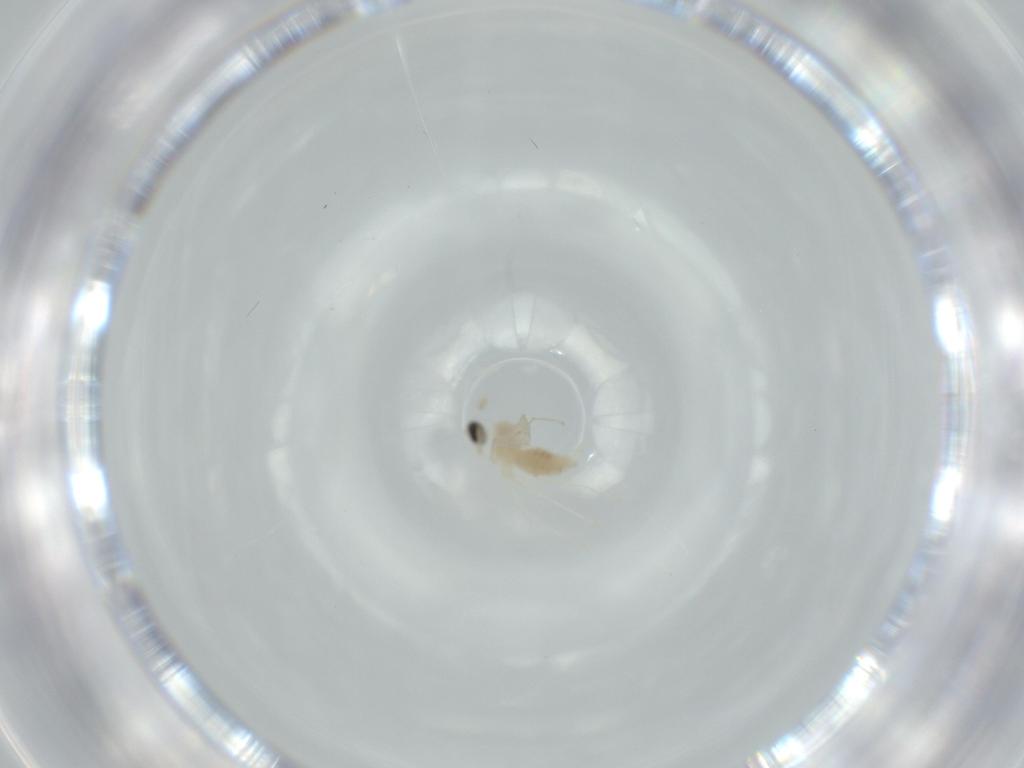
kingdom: Animalia
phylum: Arthropoda
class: Insecta
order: Diptera
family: Cecidomyiidae
